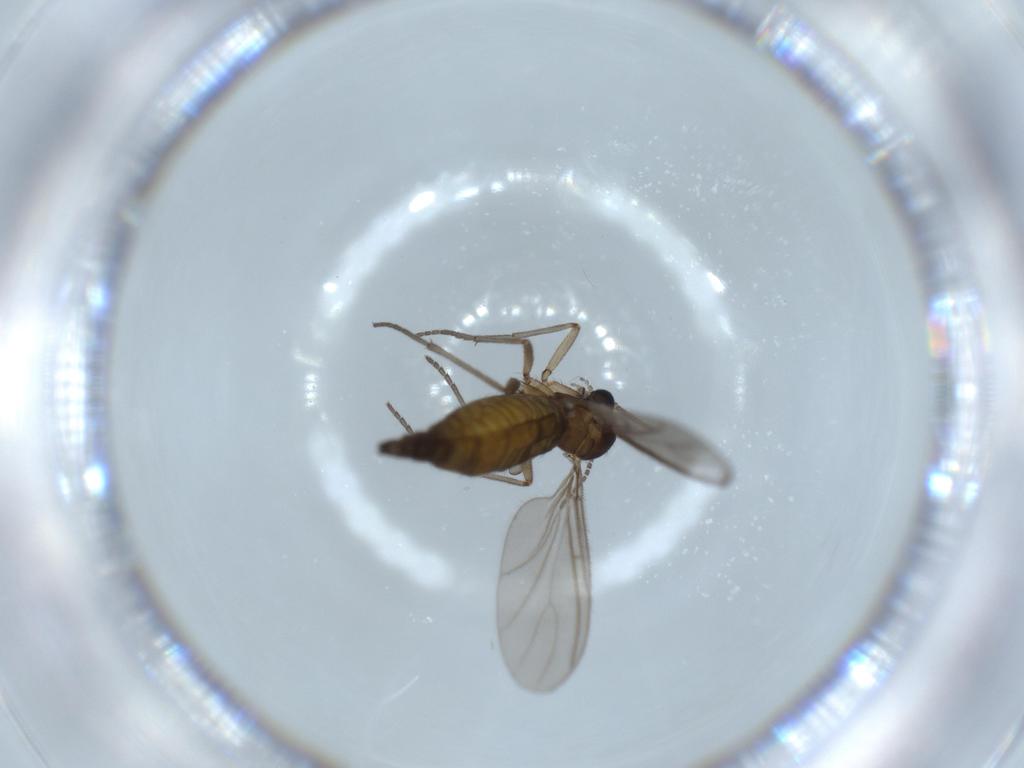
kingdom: Animalia
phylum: Arthropoda
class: Insecta
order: Diptera
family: Sciaridae
